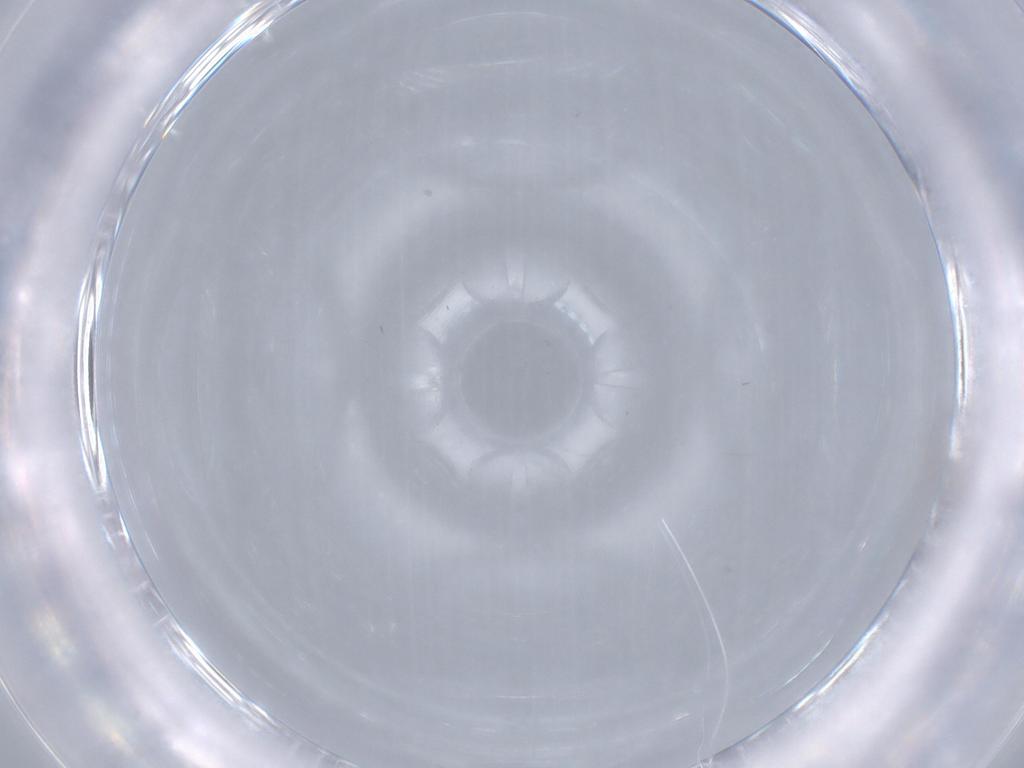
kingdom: Animalia
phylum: Arthropoda
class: Insecta
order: Diptera
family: Cecidomyiidae
